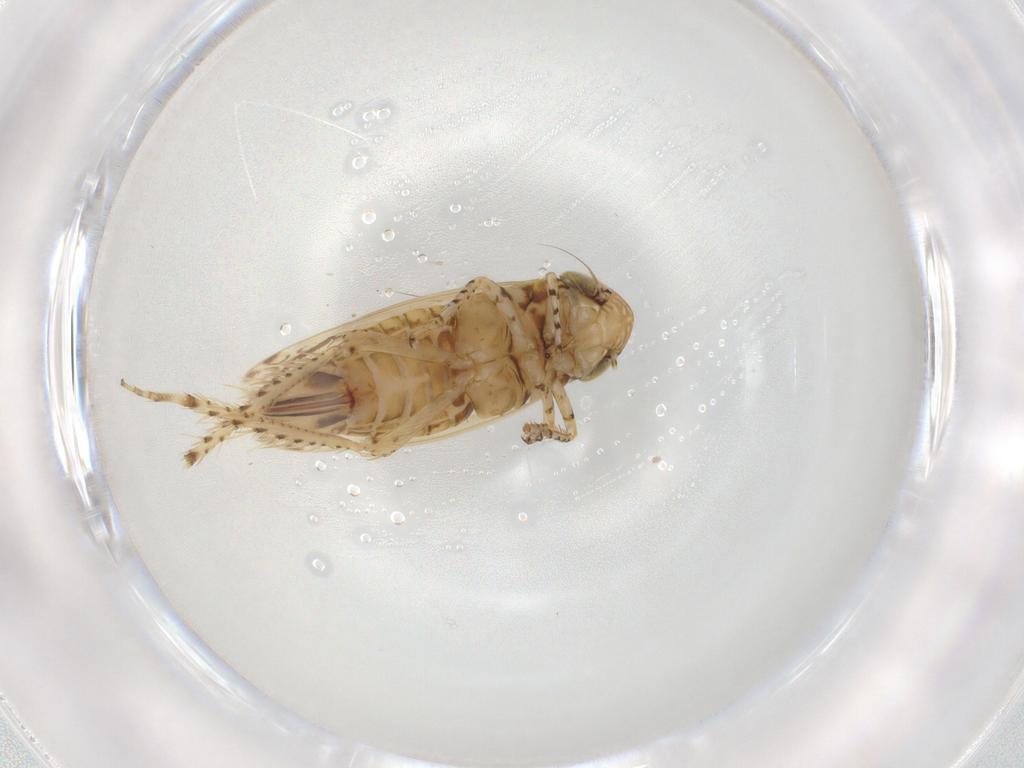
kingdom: Animalia
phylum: Arthropoda
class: Insecta
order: Hemiptera
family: Cicadellidae
